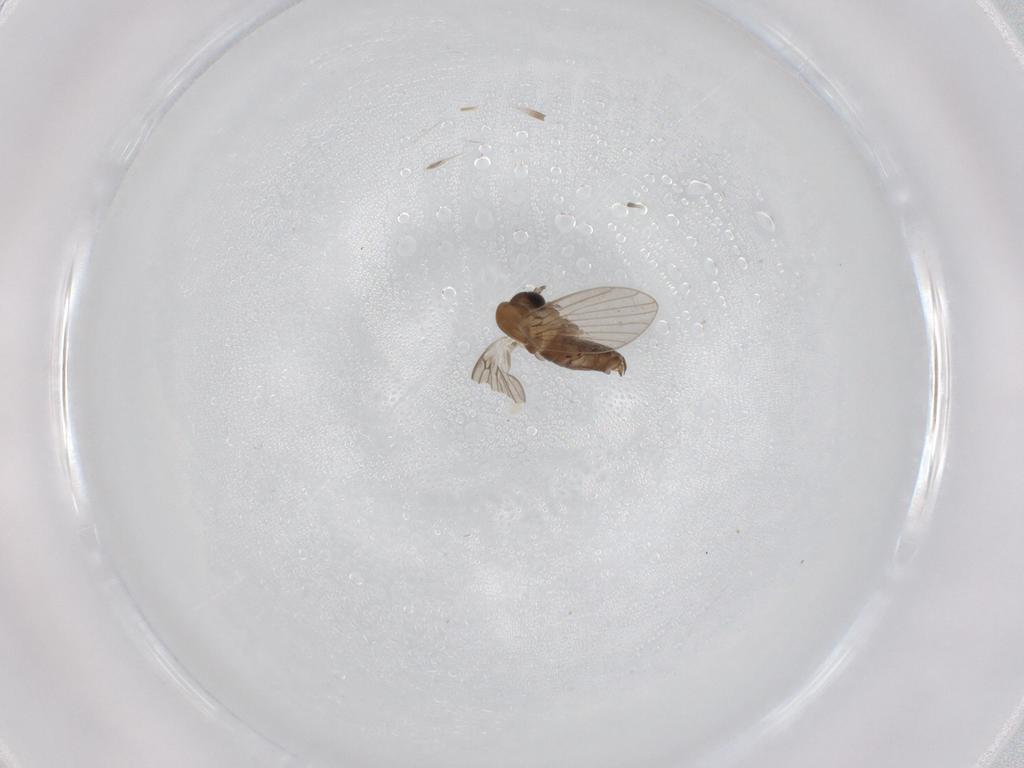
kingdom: Animalia
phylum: Arthropoda
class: Insecta
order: Diptera
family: Psychodidae
